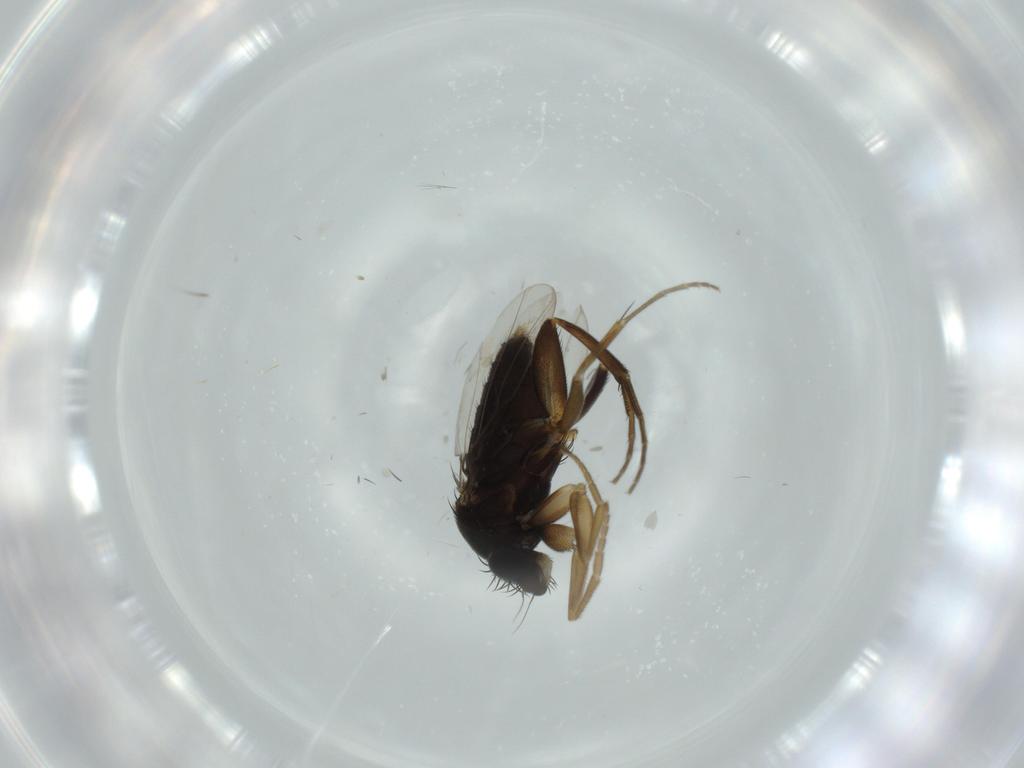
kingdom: Animalia
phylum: Arthropoda
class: Insecta
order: Diptera
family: Phoridae
